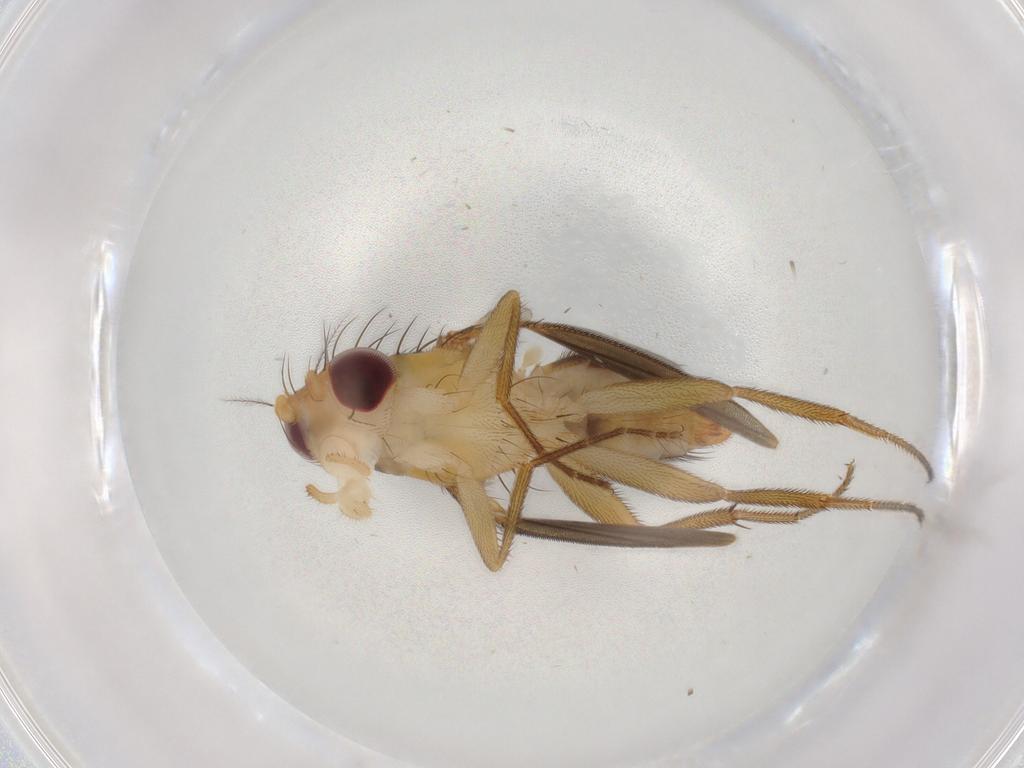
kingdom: Animalia
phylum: Arthropoda
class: Insecta
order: Diptera
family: Clusiidae
